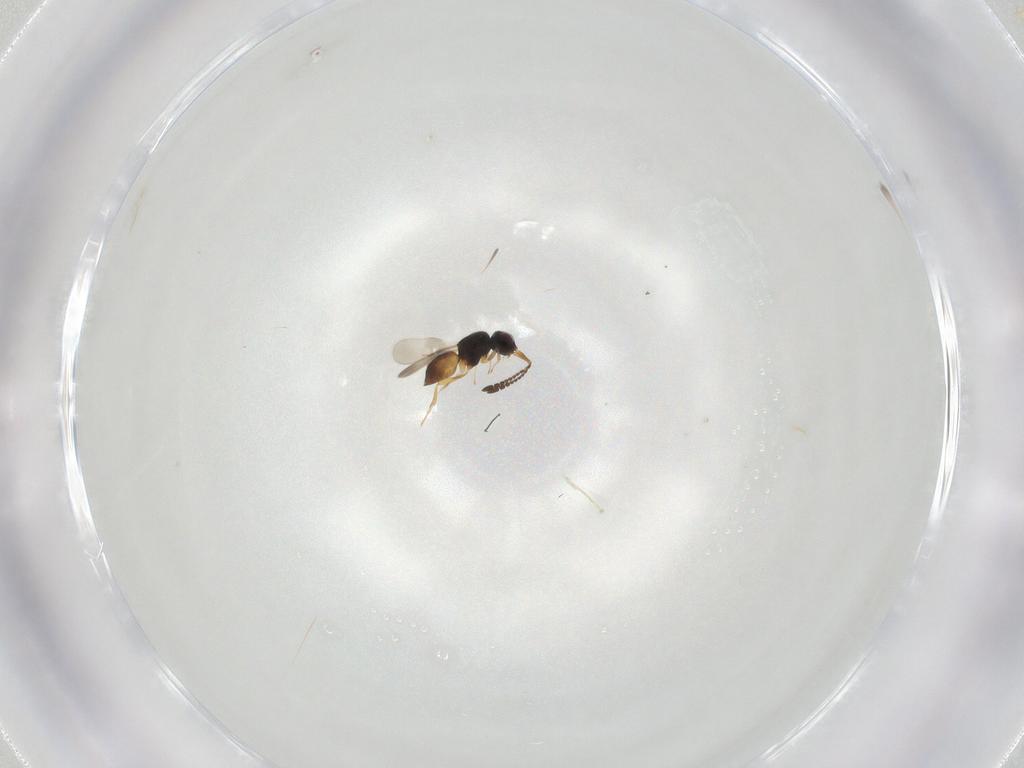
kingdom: Animalia
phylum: Arthropoda
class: Insecta
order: Hymenoptera
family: Ichneumonidae
